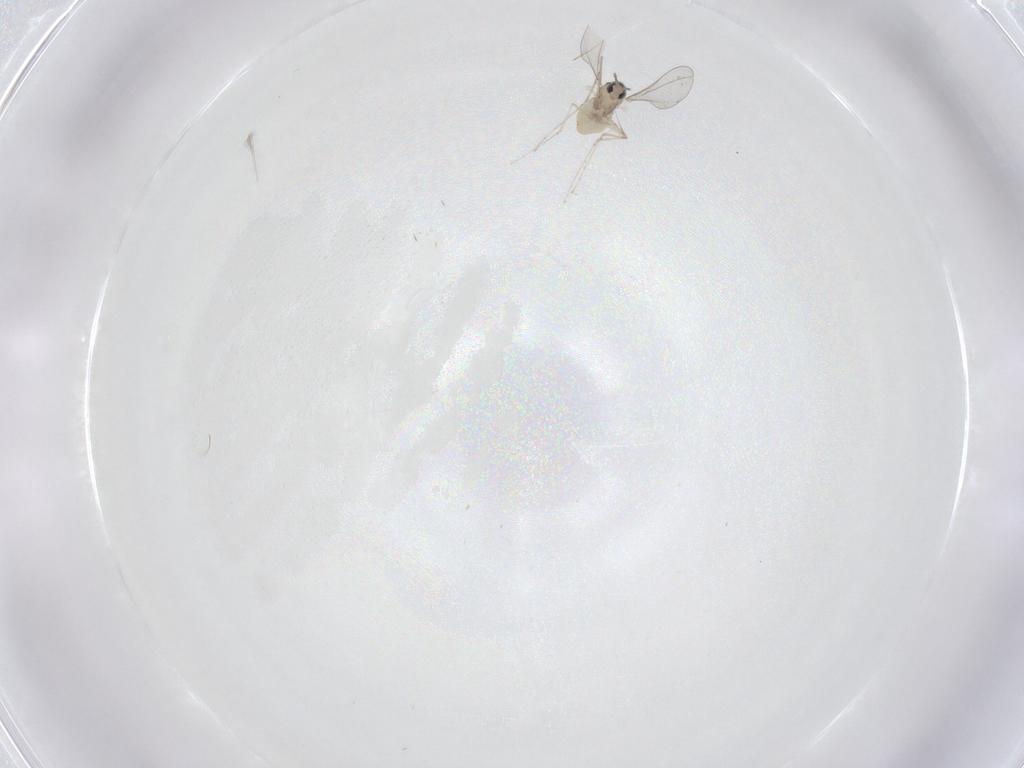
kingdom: Animalia
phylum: Arthropoda
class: Insecta
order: Diptera
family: Cecidomyiidae
